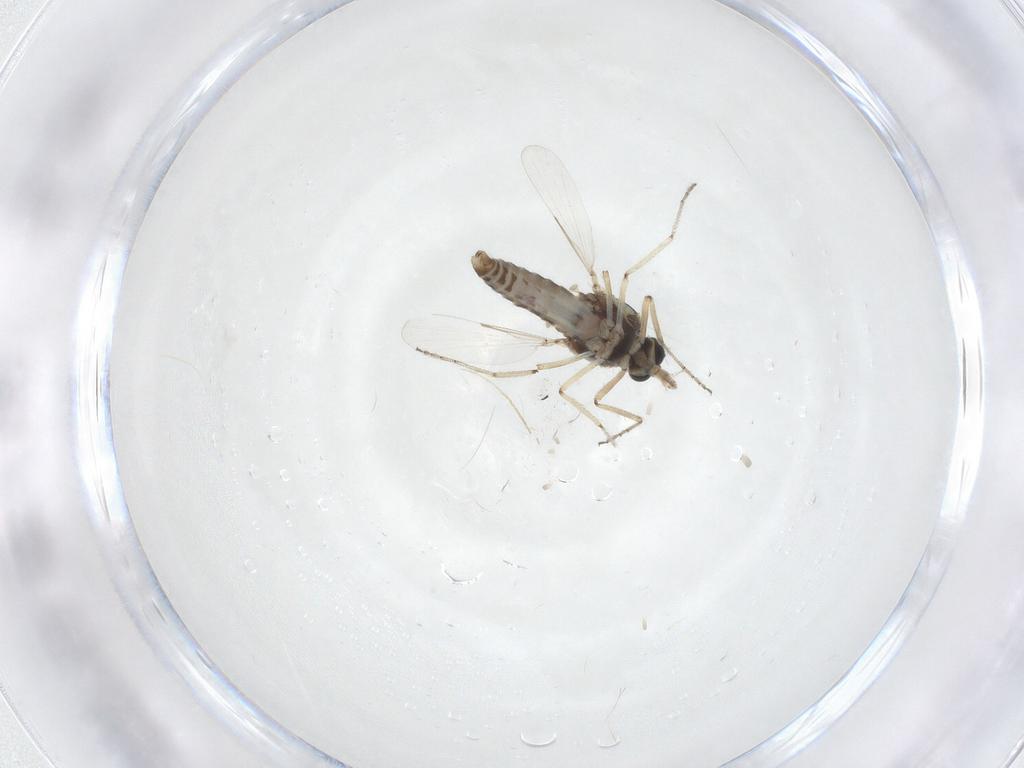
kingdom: Animalia
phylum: Arthropoda
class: Insecta
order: Diptera
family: Ceratopogonidae
